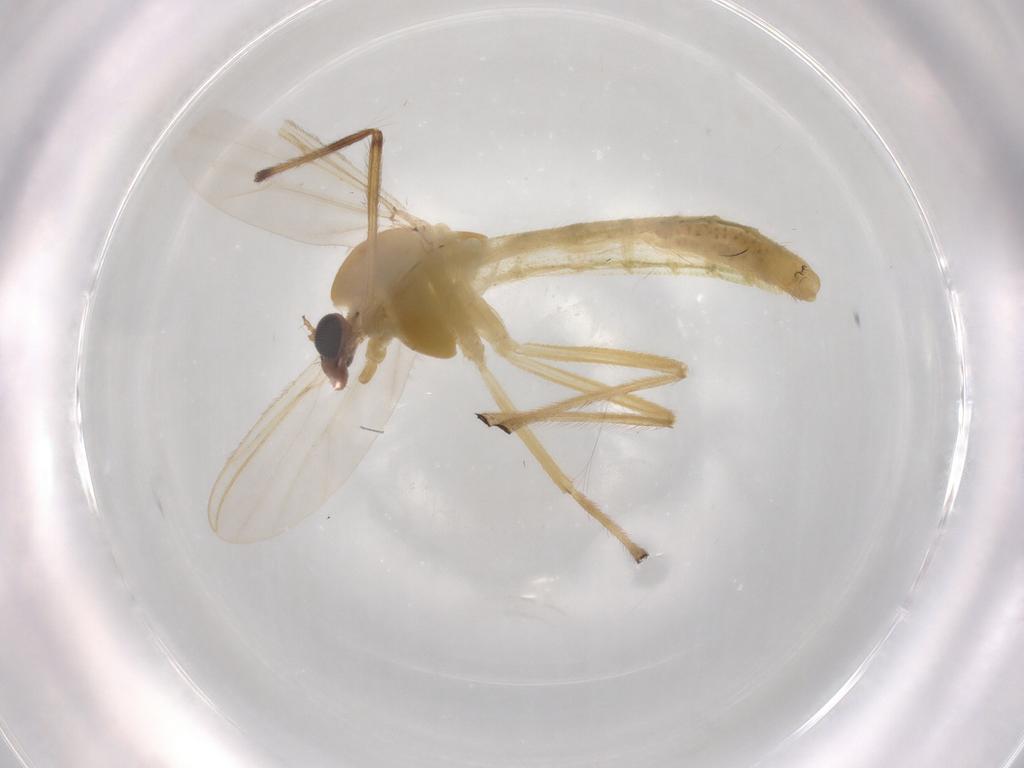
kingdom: Animalia
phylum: Arthropoda
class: Insecta
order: Diptera
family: Chironomidae
